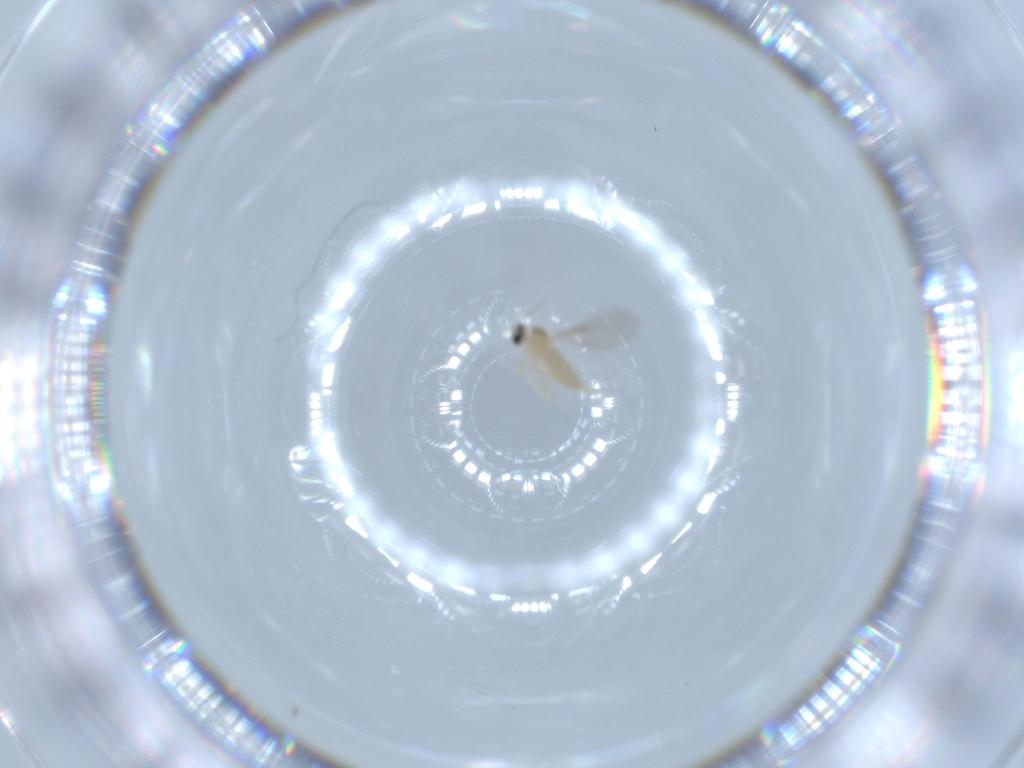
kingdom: Animalia
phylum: Arthropoda
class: Insecta
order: Diptera
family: Cecidomyiidae
